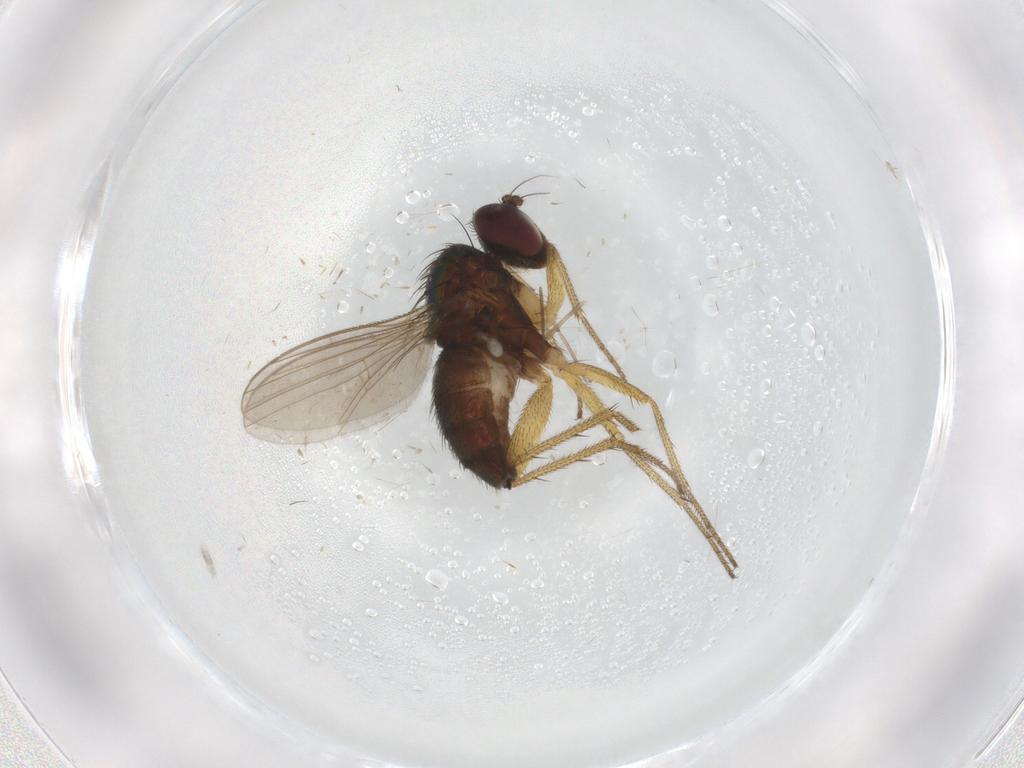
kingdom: Animalia
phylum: Arthropoda
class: Insecta
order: Diptera
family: Dolichopodidae
